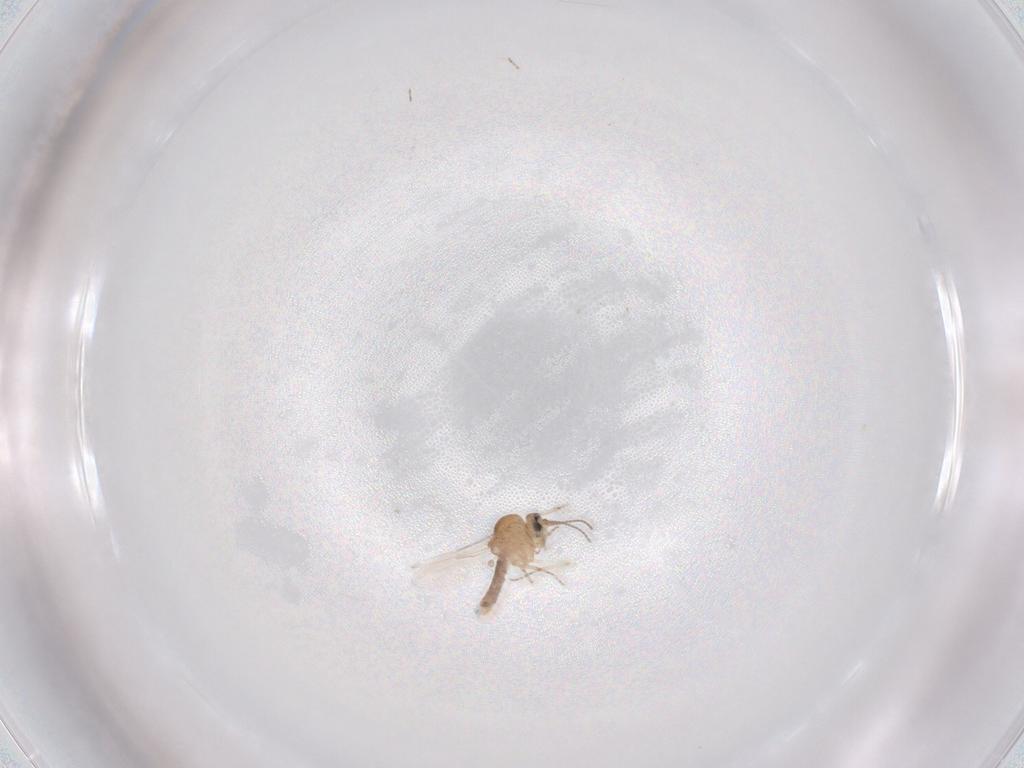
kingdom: Animalia
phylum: Arthropoda
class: Insecta
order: Diptera
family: Ceratopogonidae
